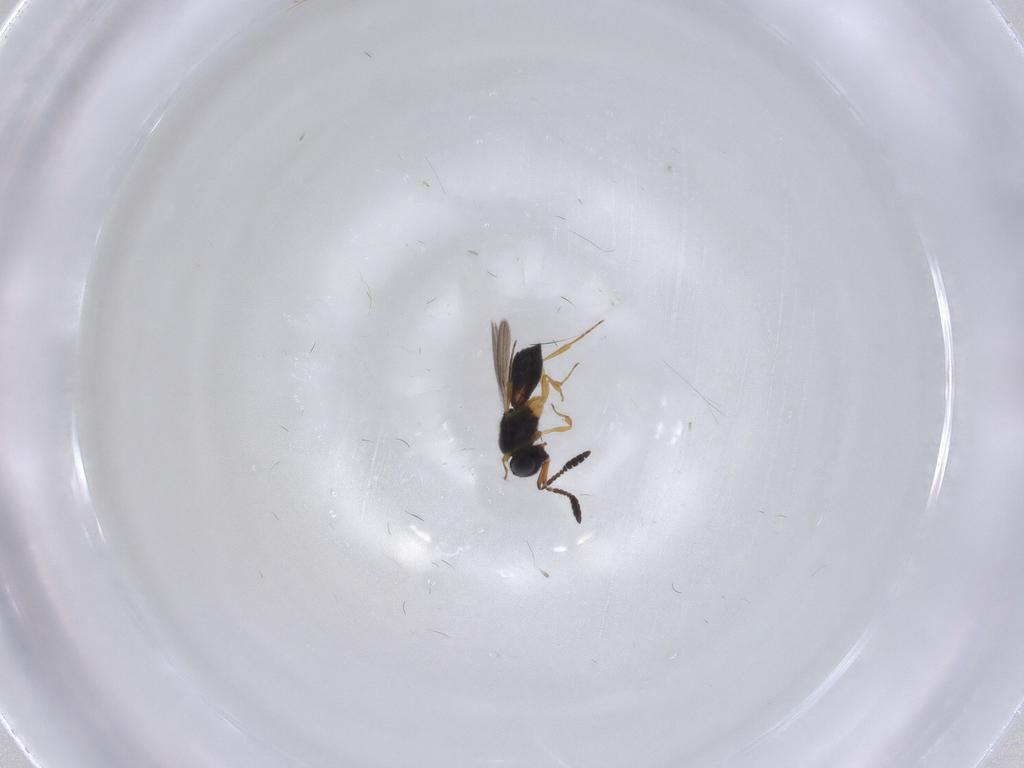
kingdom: Animalia
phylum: Arthropoda
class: Insecta
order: Hymenoptera
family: Scelionidae
